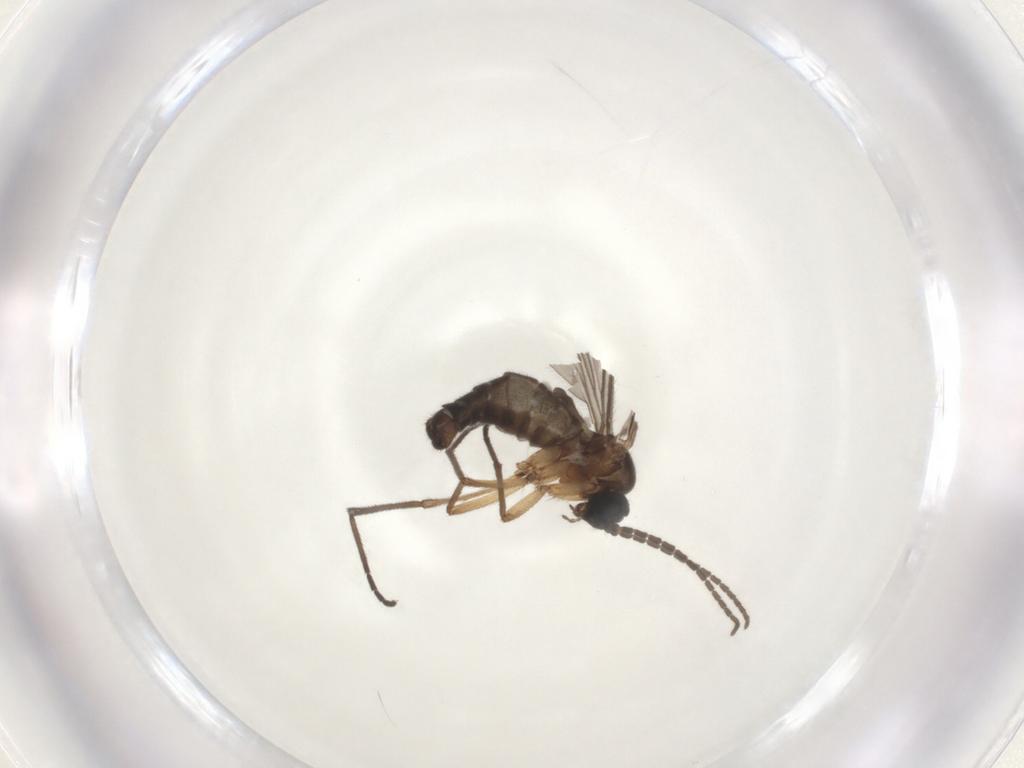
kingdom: Animalia
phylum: Arthropoda
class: Insecta
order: Diptera
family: Sciaridae
